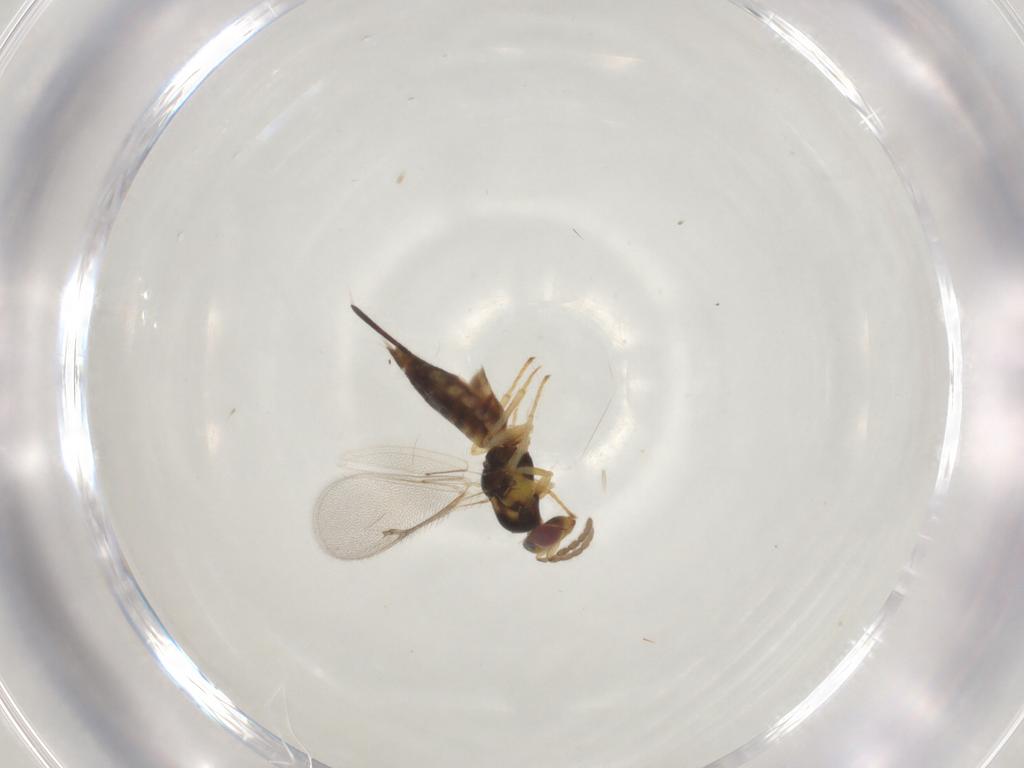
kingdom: Animalia
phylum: Arthropoda
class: Insecta
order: Hymenoptera
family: Eulophidae
